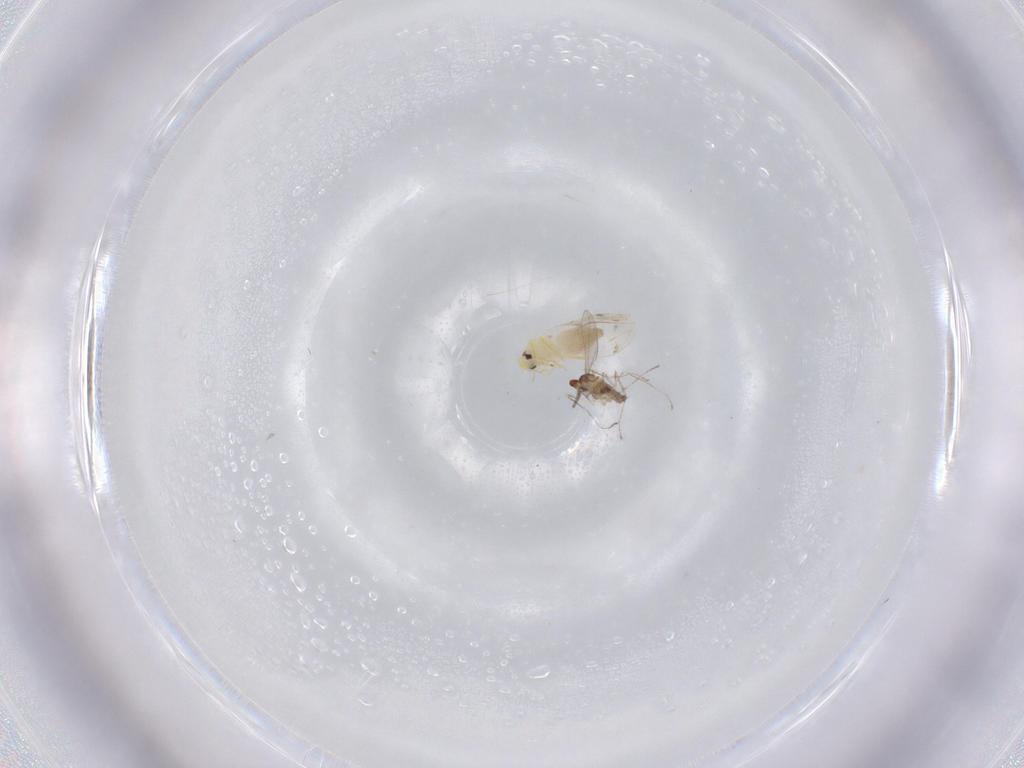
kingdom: Animalia
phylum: Arthropoda
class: Insecta
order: Hemiptera
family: Aleyrodidae
